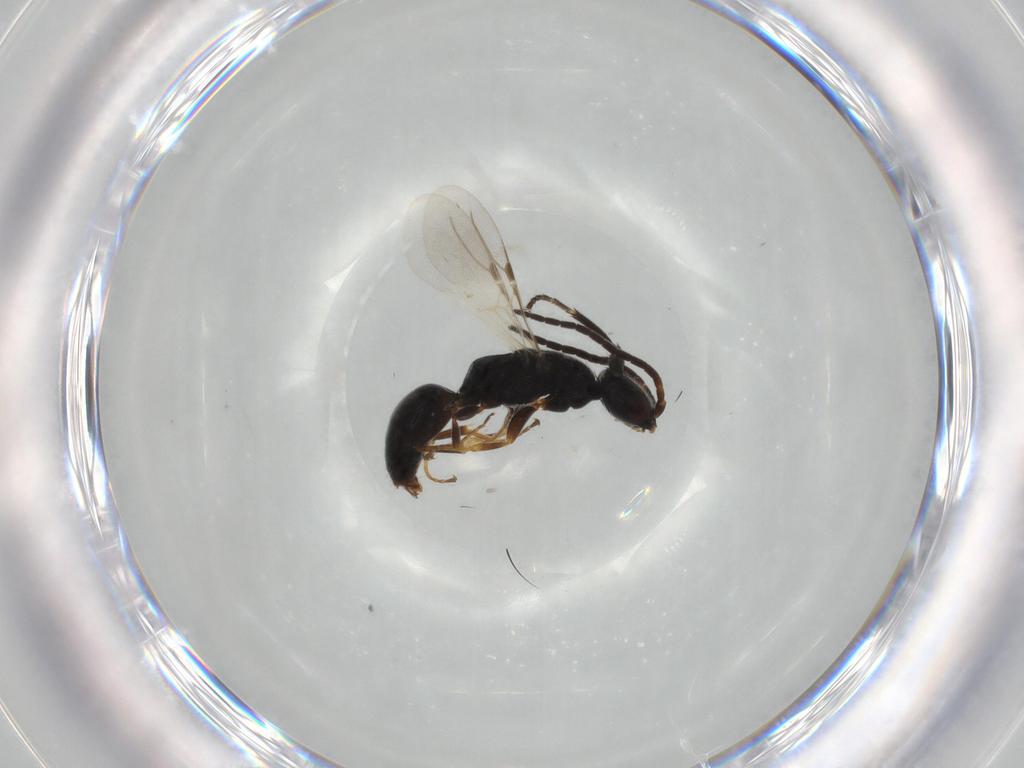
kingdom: Animalia
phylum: Arthropoda
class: Insecta
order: Hymenoptera
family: Bethylidae
